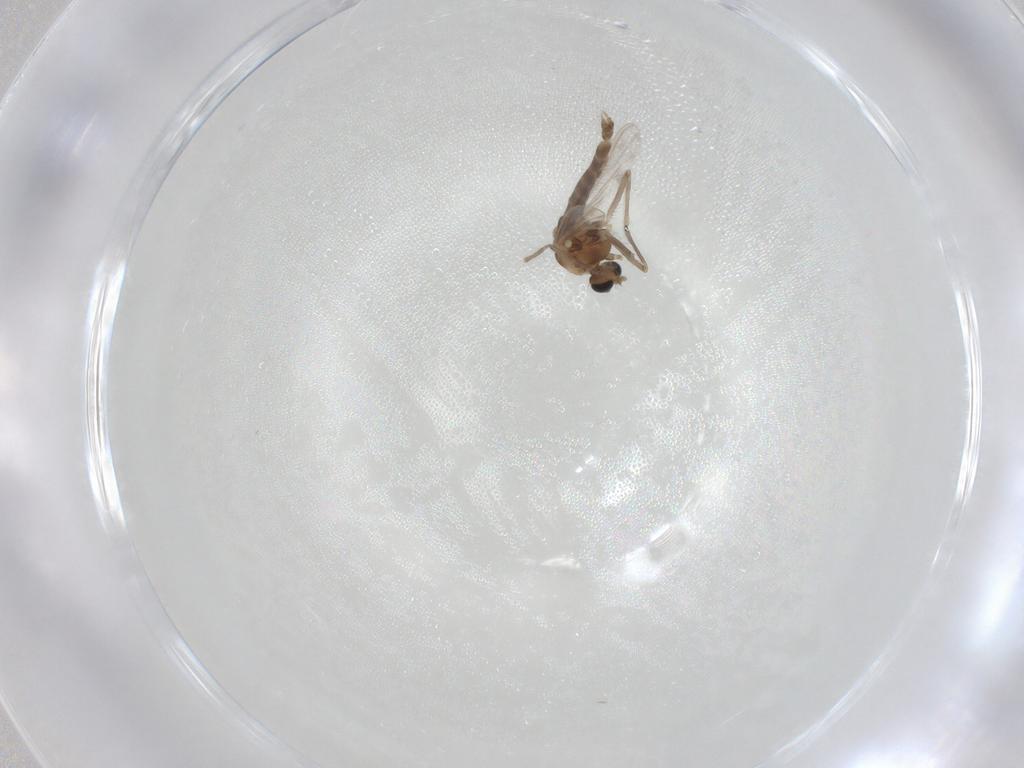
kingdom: Animalia
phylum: Arthropoda
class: Insecta
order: Diptera
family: Chironomidae
